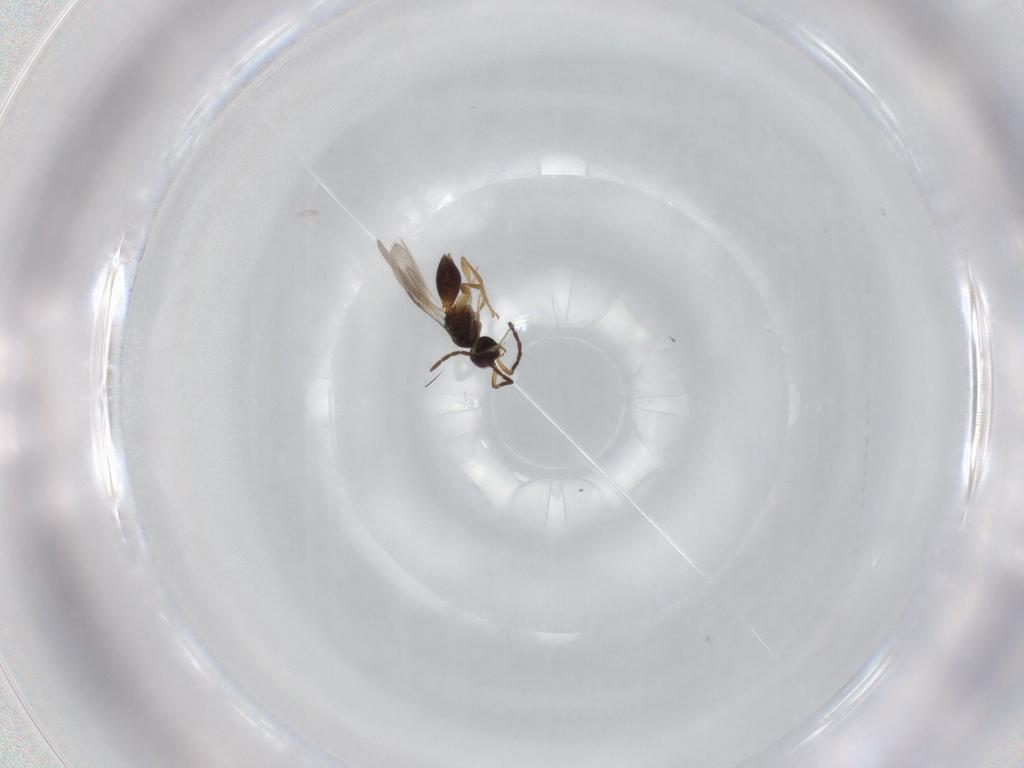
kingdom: Animalia
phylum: Arthropoda
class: Insecta
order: Hymenoptera
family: Megaspilidae
